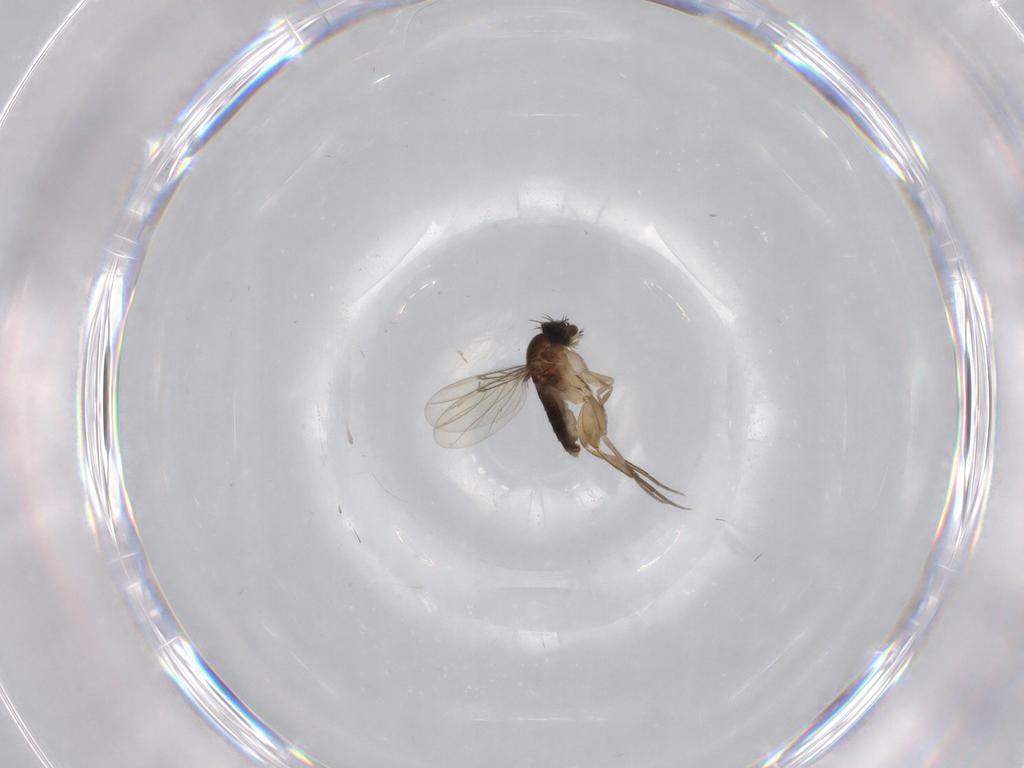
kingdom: Animalia
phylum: Arthropoda
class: Insecta
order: Diptera
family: Phoridae
